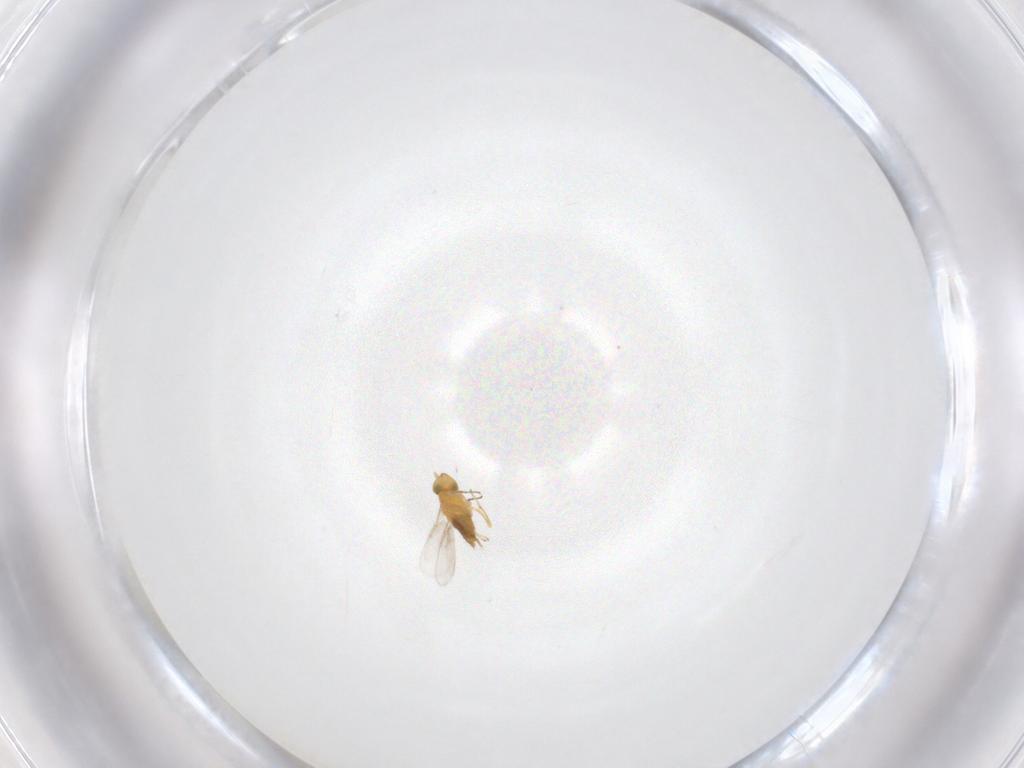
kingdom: Animalia
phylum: Arthropoda
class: Insecta
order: Hymenoptera
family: Aphelinidae
